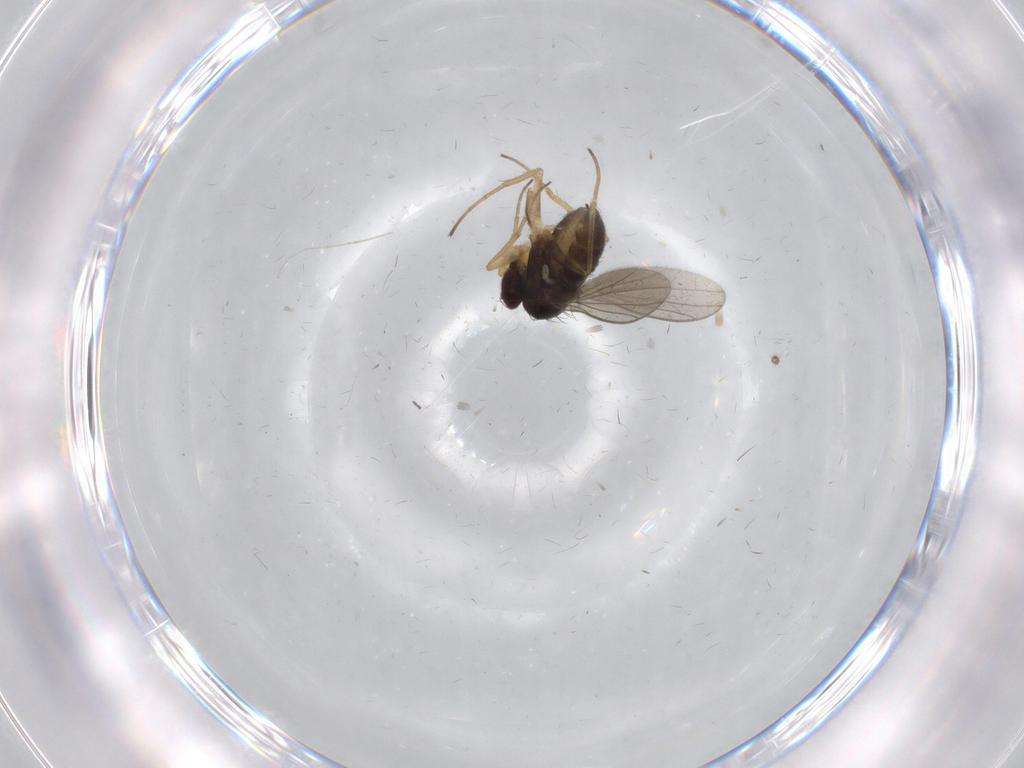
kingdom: Animalia
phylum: Arthropoda
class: Insecta
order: Diptera
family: Dolichopodidae
